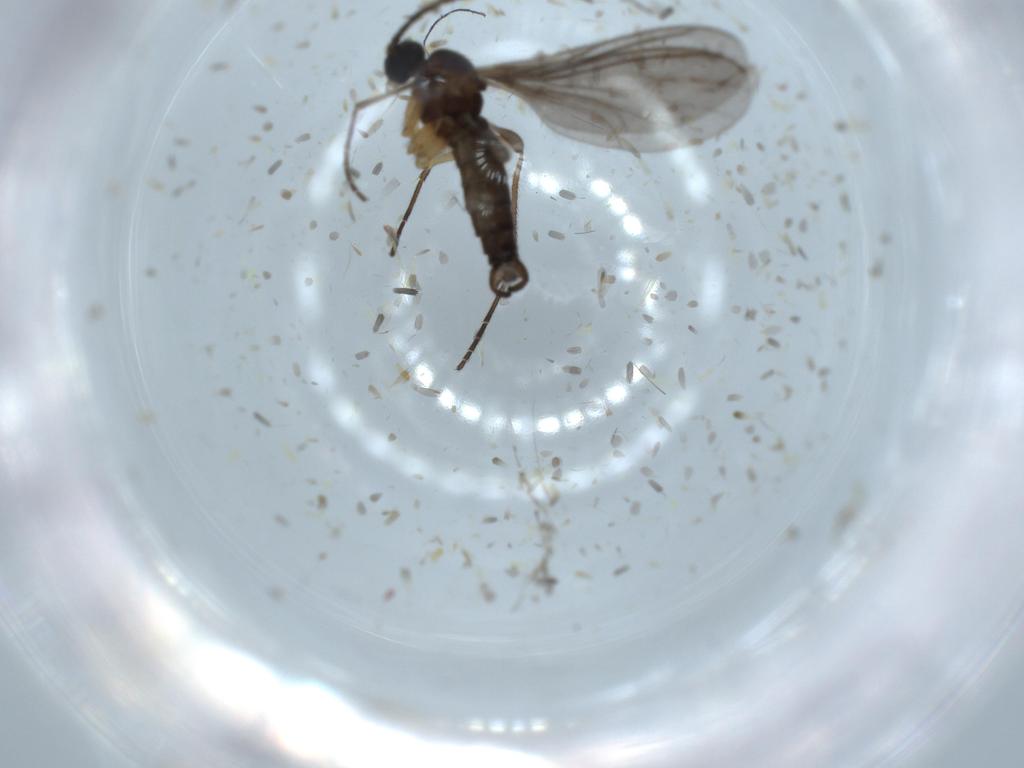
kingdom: Animalia
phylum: Arthropoda
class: Insecta
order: Diptera
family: Sciaridae
